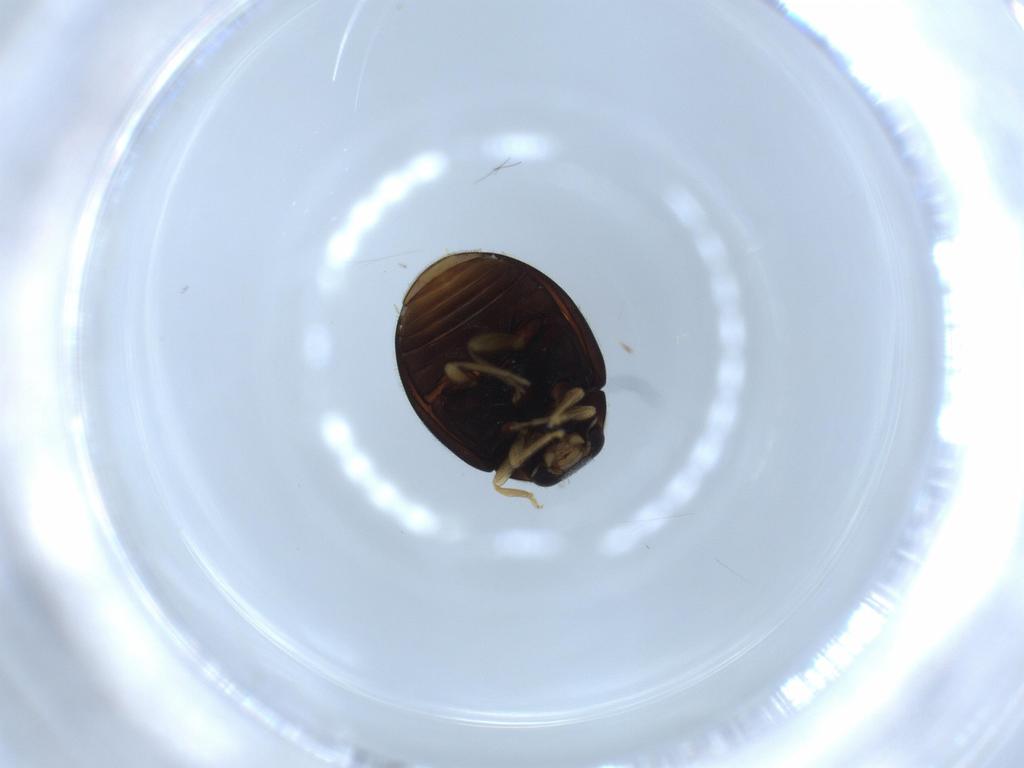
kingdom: Animalia
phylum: Arthropoda
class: Insecta
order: Coleoptera
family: Coccinellidae
